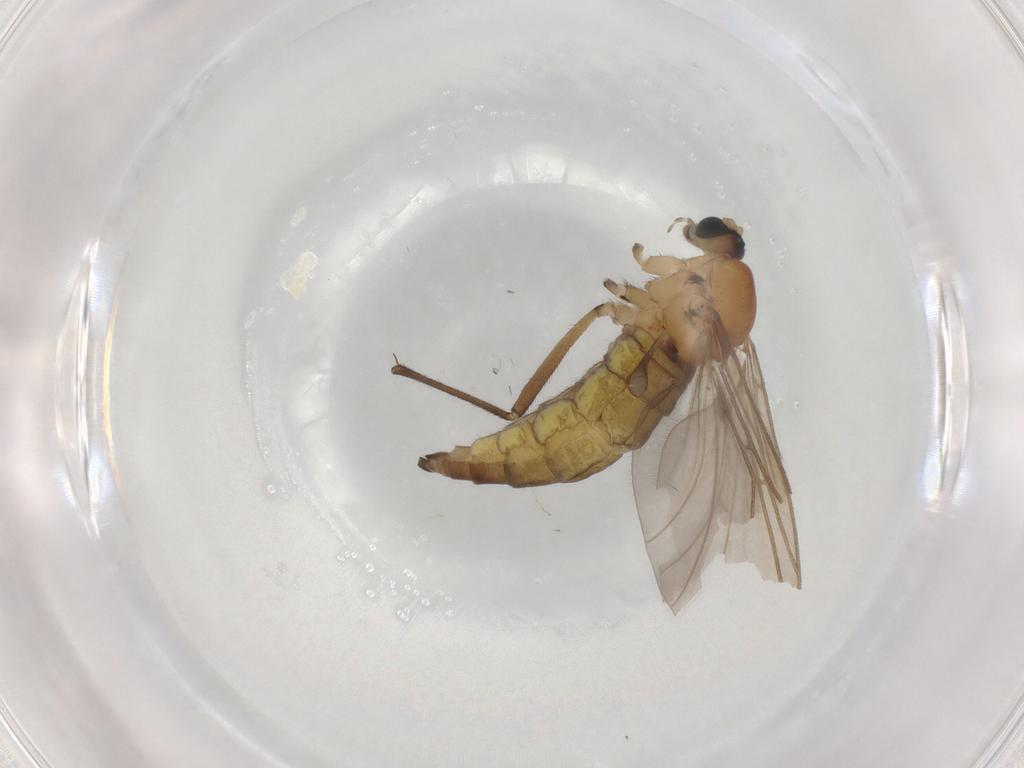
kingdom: Animalia
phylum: Arthropoda
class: Insecta
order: Diptera
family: Sciaridae
